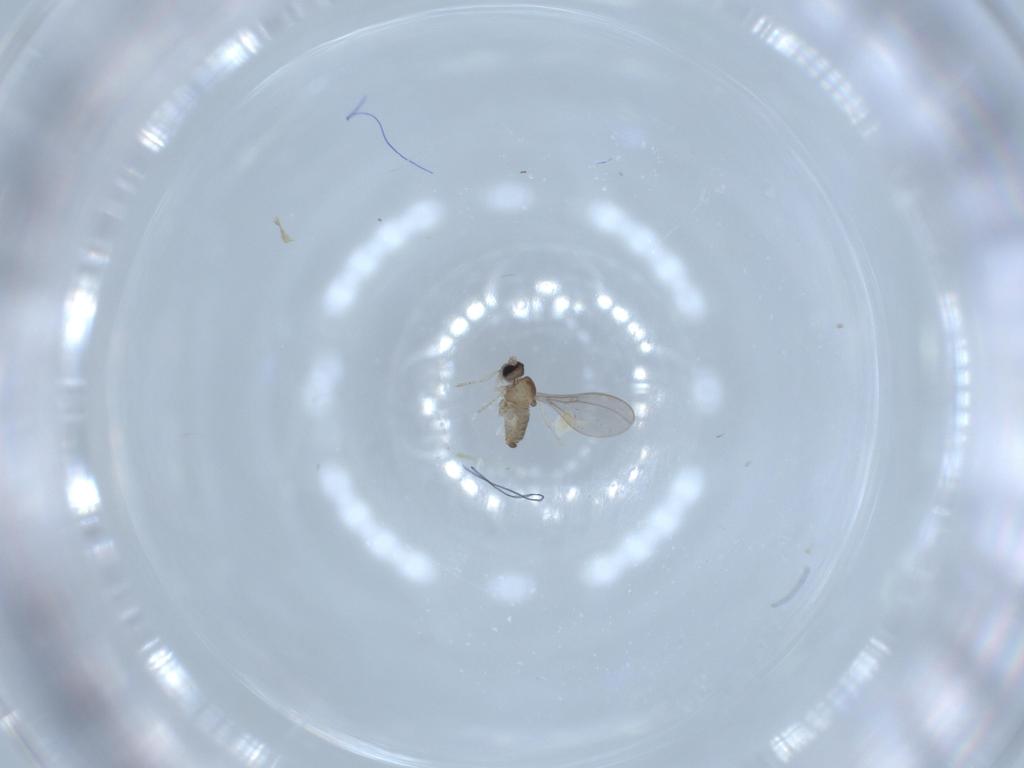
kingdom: Animalia
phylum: Arthropoda
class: Insecta
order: Diptera
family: Cecidomyiidae
